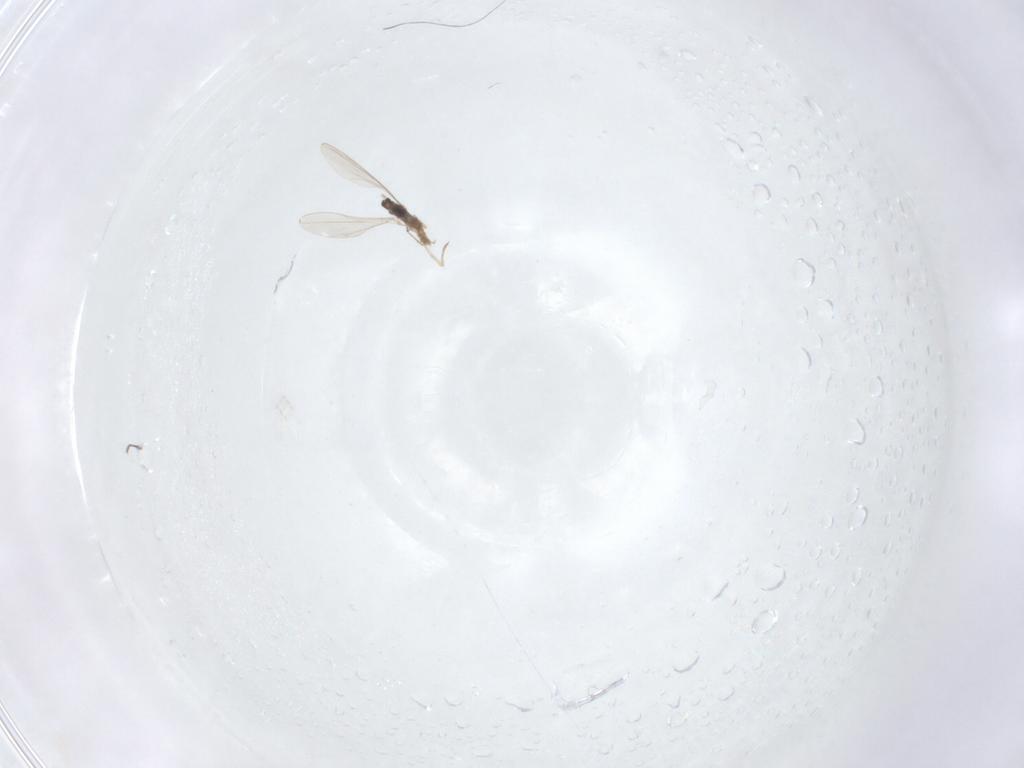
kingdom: Animalia
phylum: Arthropoda
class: Insecta
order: Diptera
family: Cecidomyiidae
